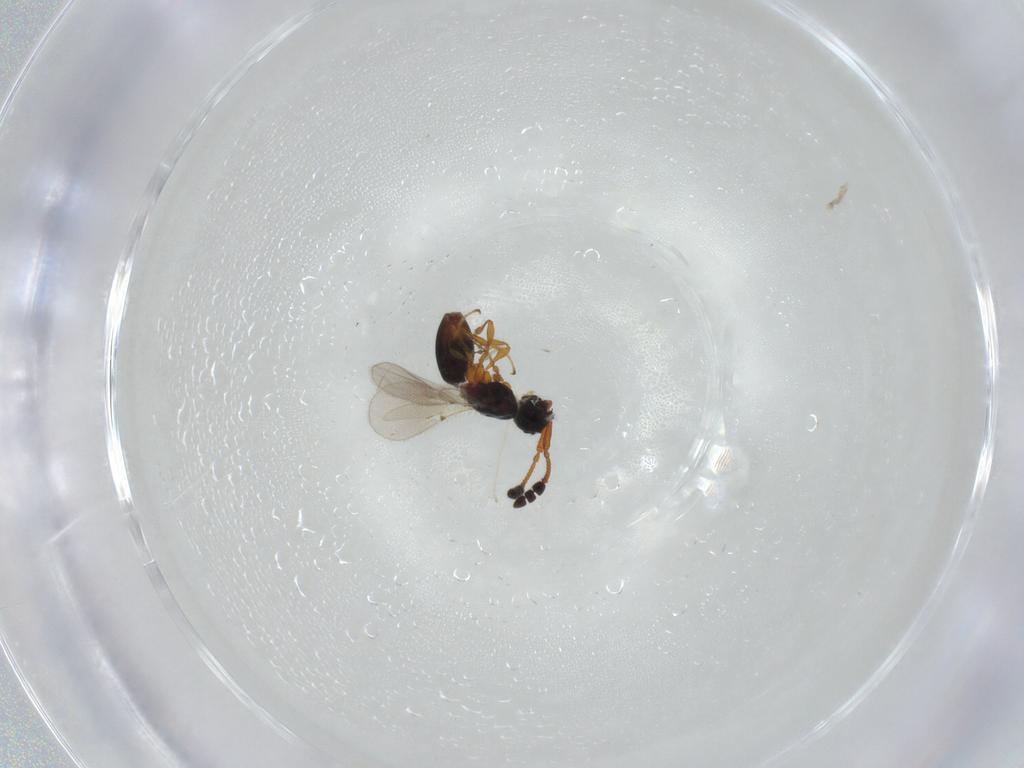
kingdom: Animalia
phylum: Arthropoda
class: Insecta
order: Hymenoptera
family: Diapriidae
